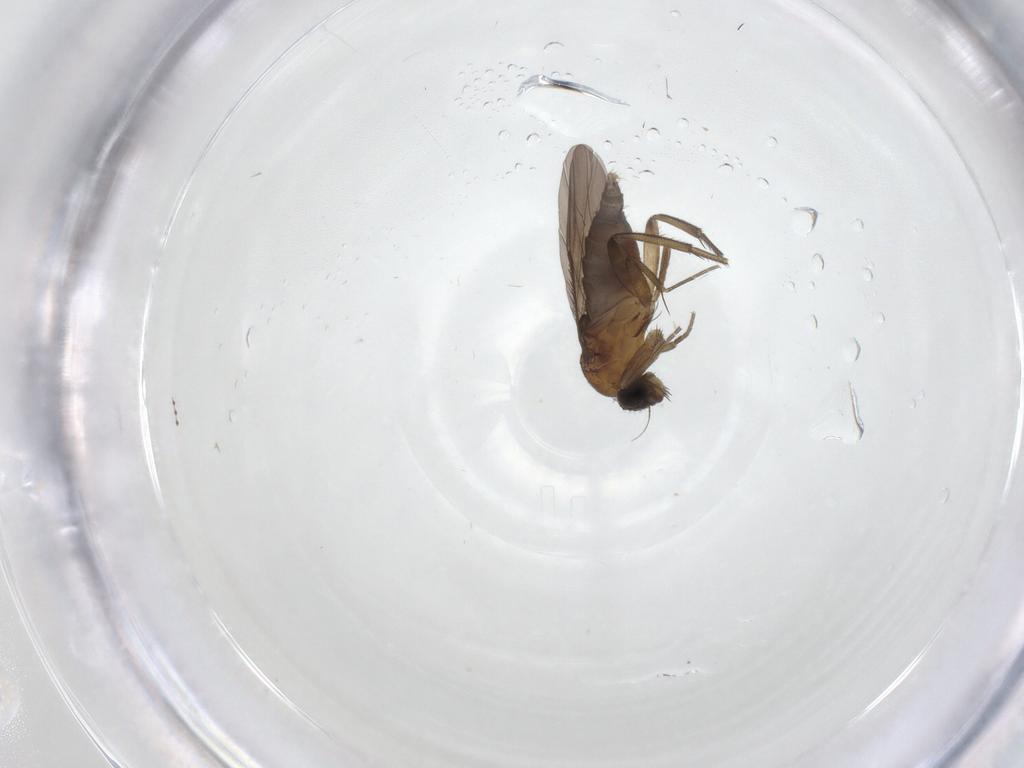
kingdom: Animalia
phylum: Arthropoda
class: Insecta
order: Diptera
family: Phoridae
